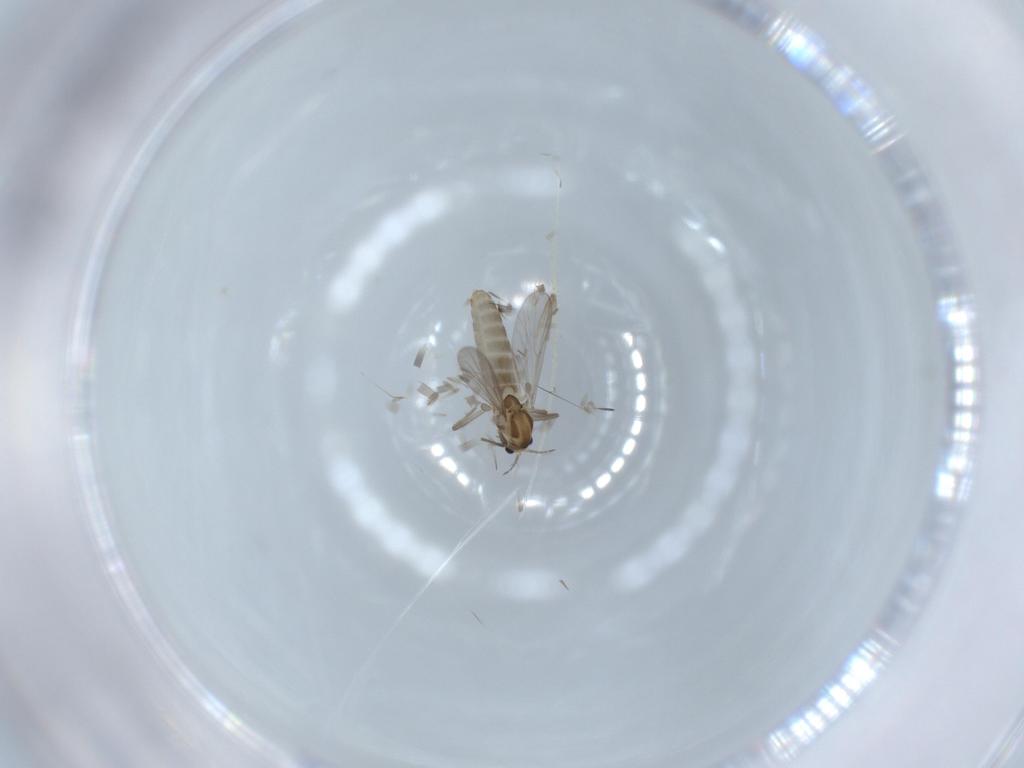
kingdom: Animalia
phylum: Arthropoda
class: Insecta
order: Diptera
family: Chironomidae
